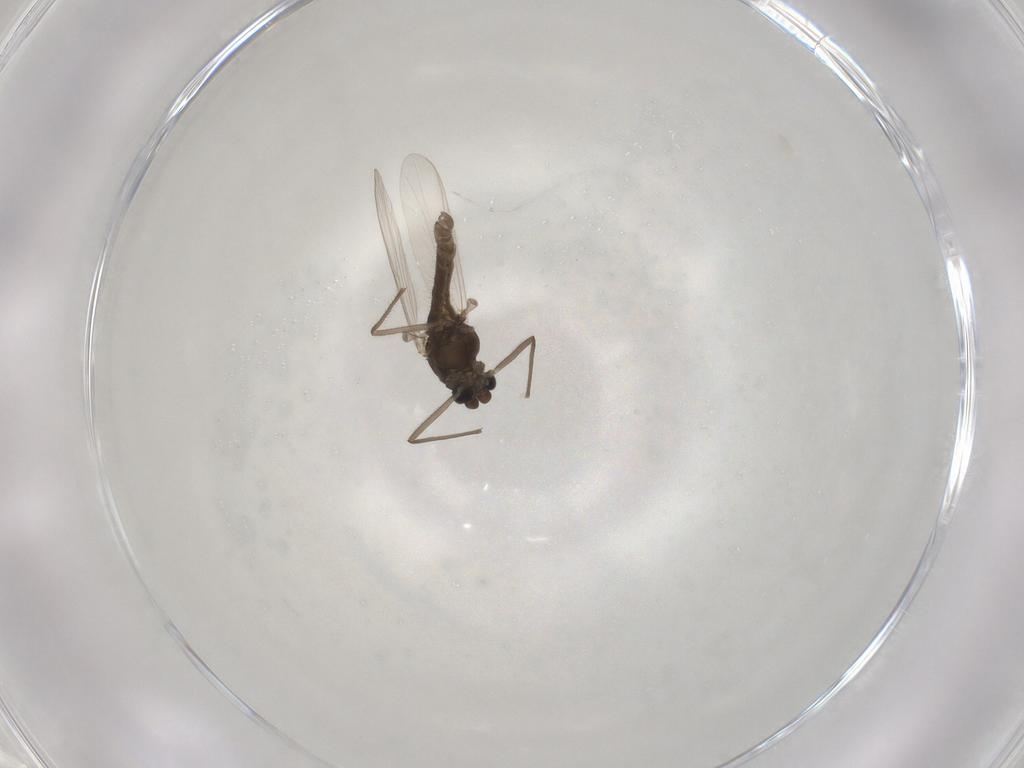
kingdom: Animalia
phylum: Arthropoda
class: Insecta
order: Diptera
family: Chironomidae
